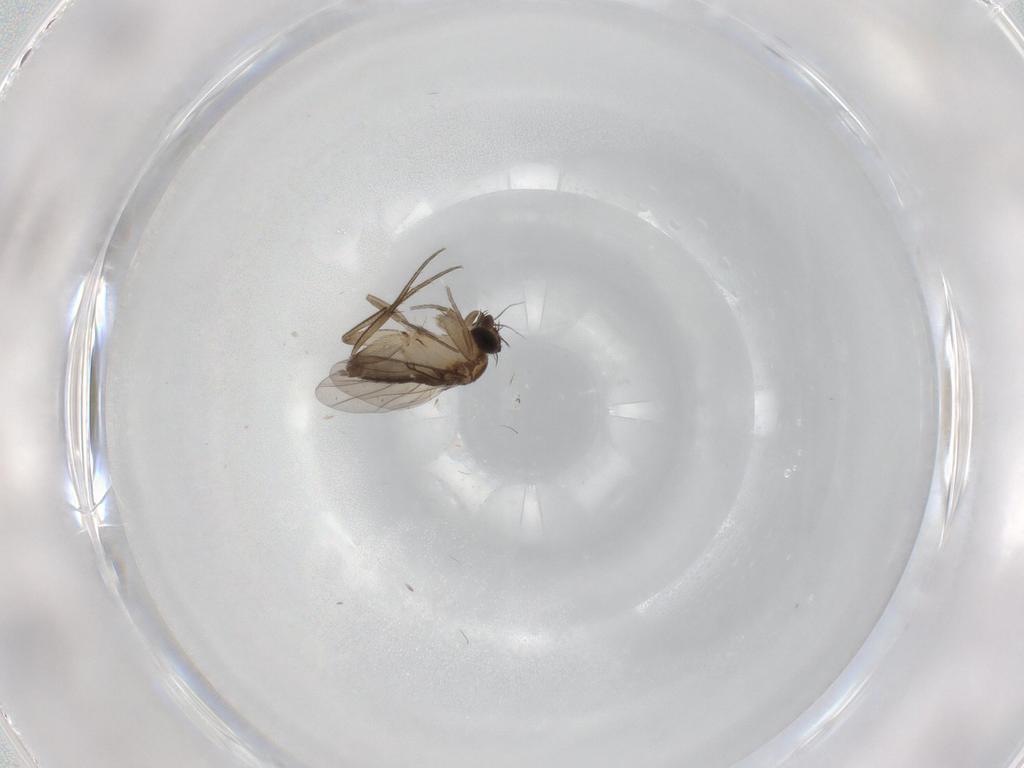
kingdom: Animalia
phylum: Arthropoda
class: Insecta
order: Diptera
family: Phoridae
